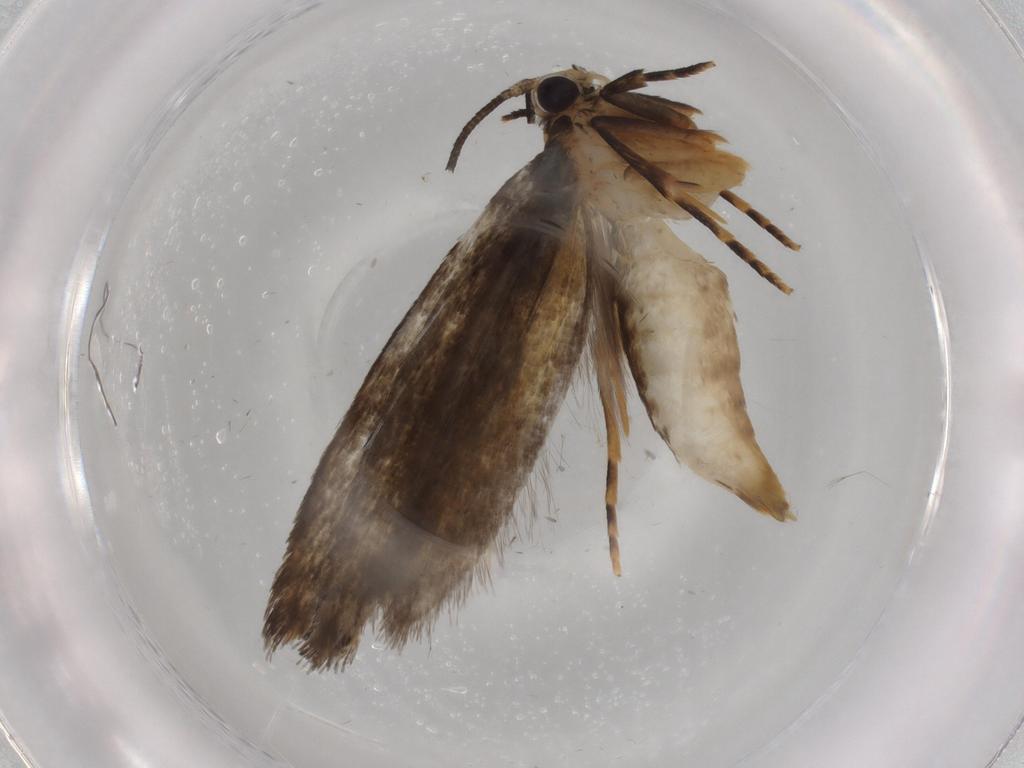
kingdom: Animalia
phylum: Arthropoda
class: Insecta
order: Lepidoptera
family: Tineidae
